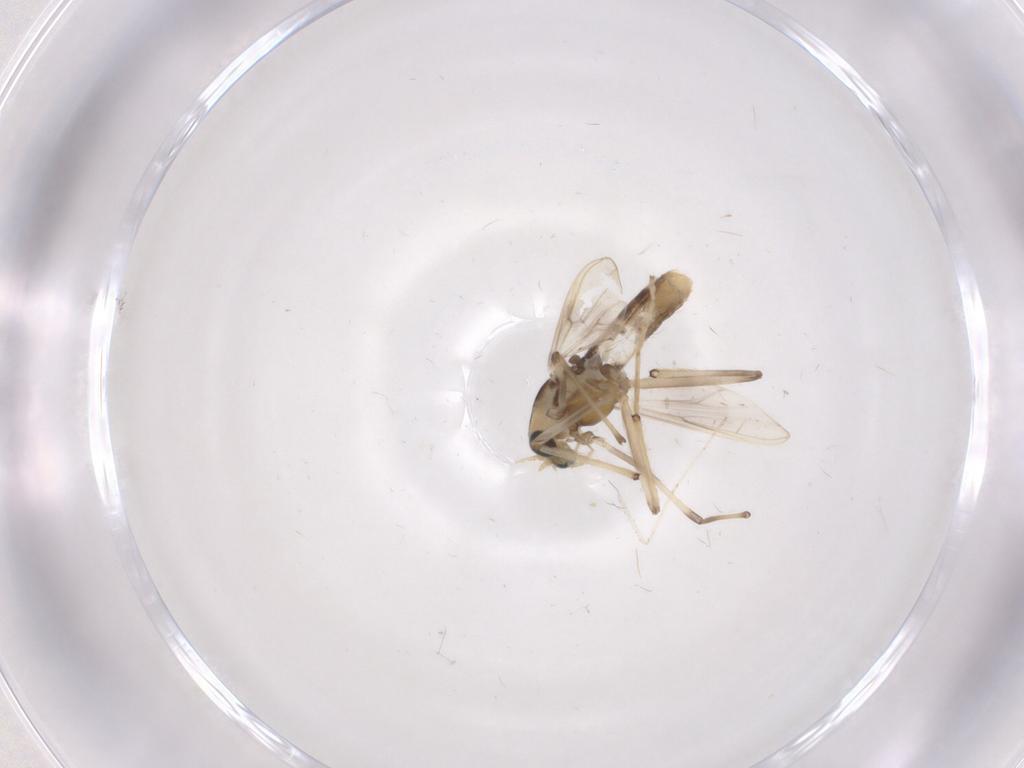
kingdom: Animalia
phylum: Arthropoda
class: Insecta
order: Diptera
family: Chironomidae
